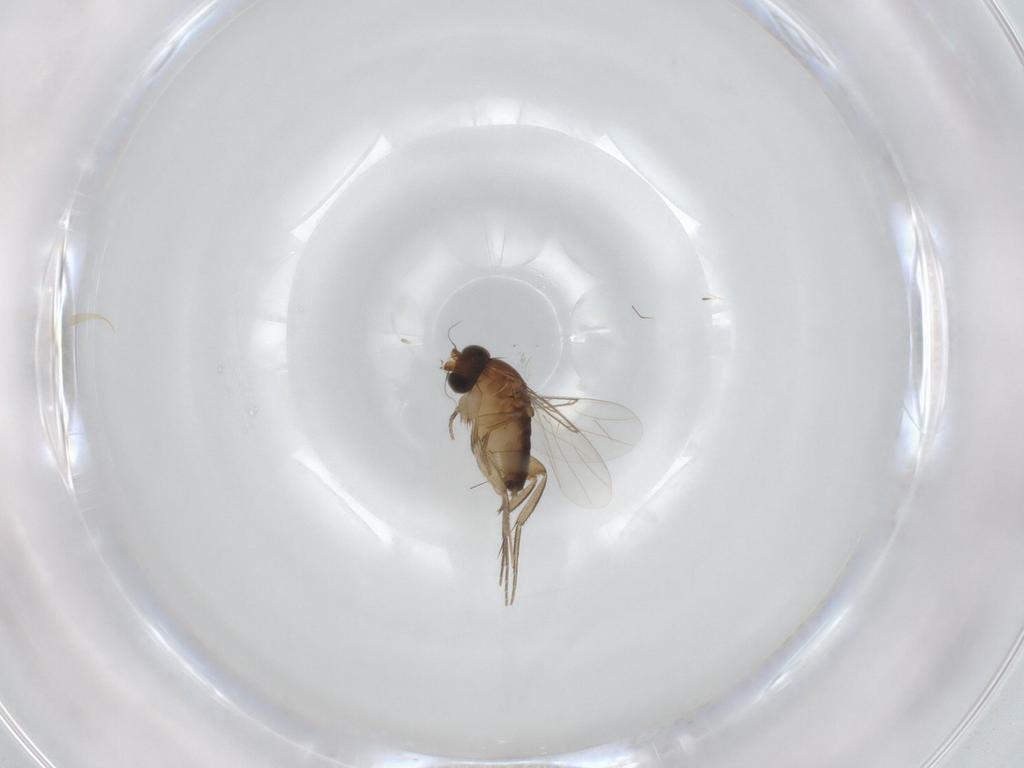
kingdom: Animalia
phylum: Arthropoda
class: Insecta
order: Diptera
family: Phoridae
